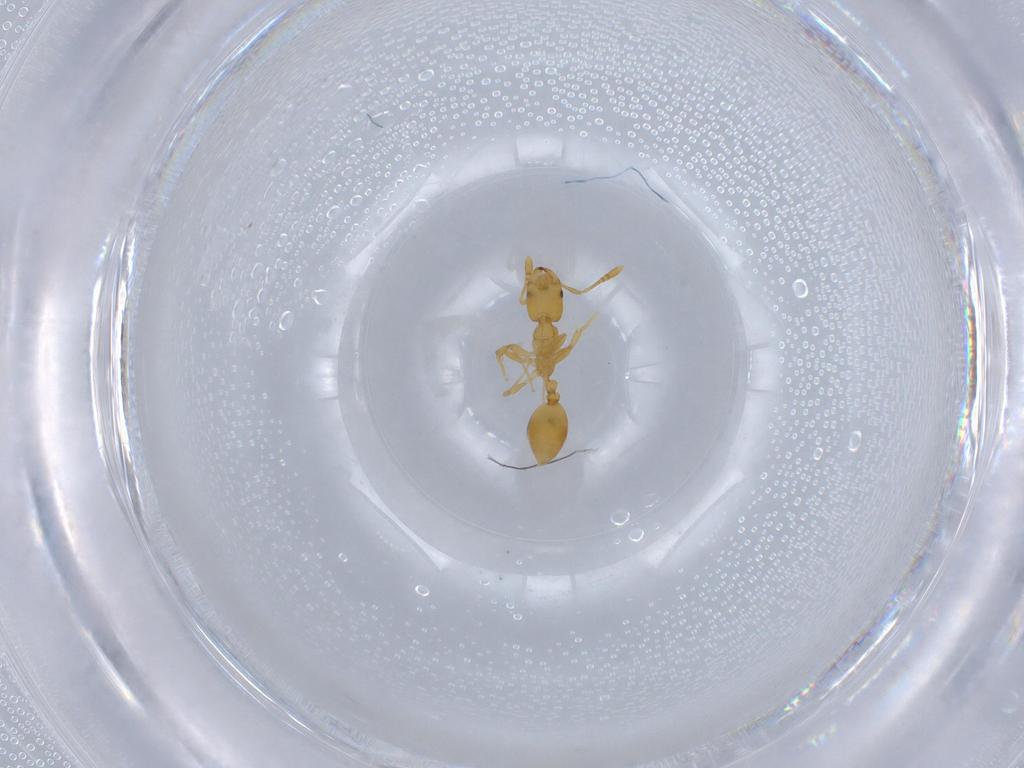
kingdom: Animalia
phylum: Arthropoda
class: Insecta
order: Hymenoptera
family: Formicidae
